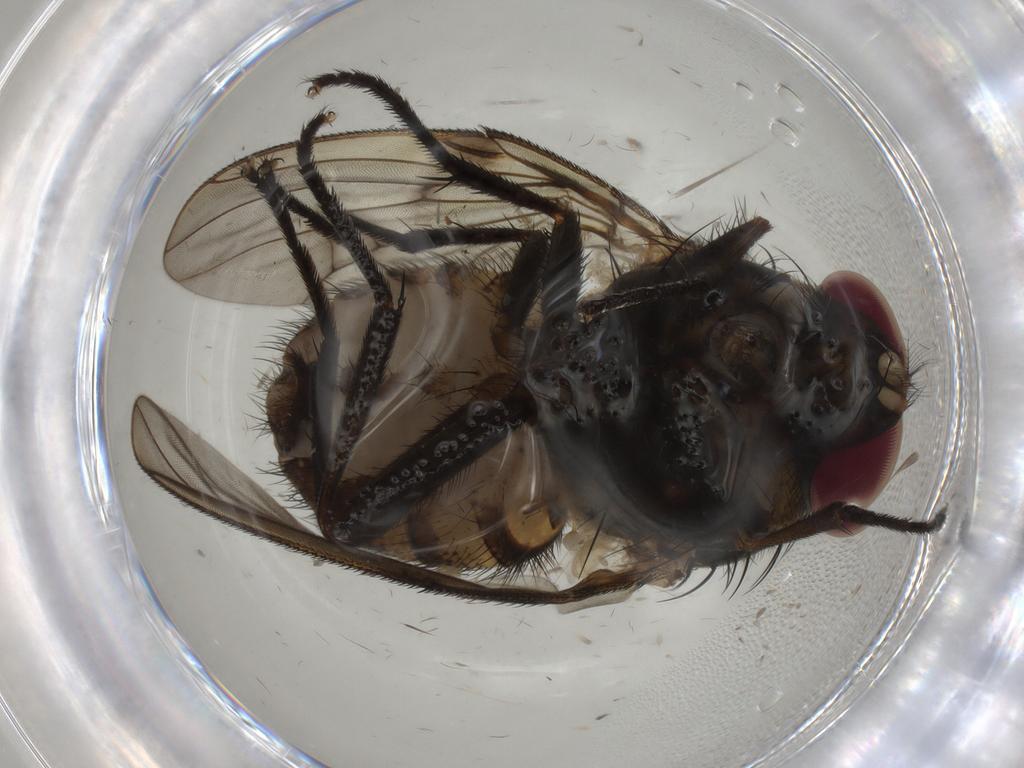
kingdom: Animalia
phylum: Arthropoda
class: Insecta
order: Diptera
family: Muscidae
